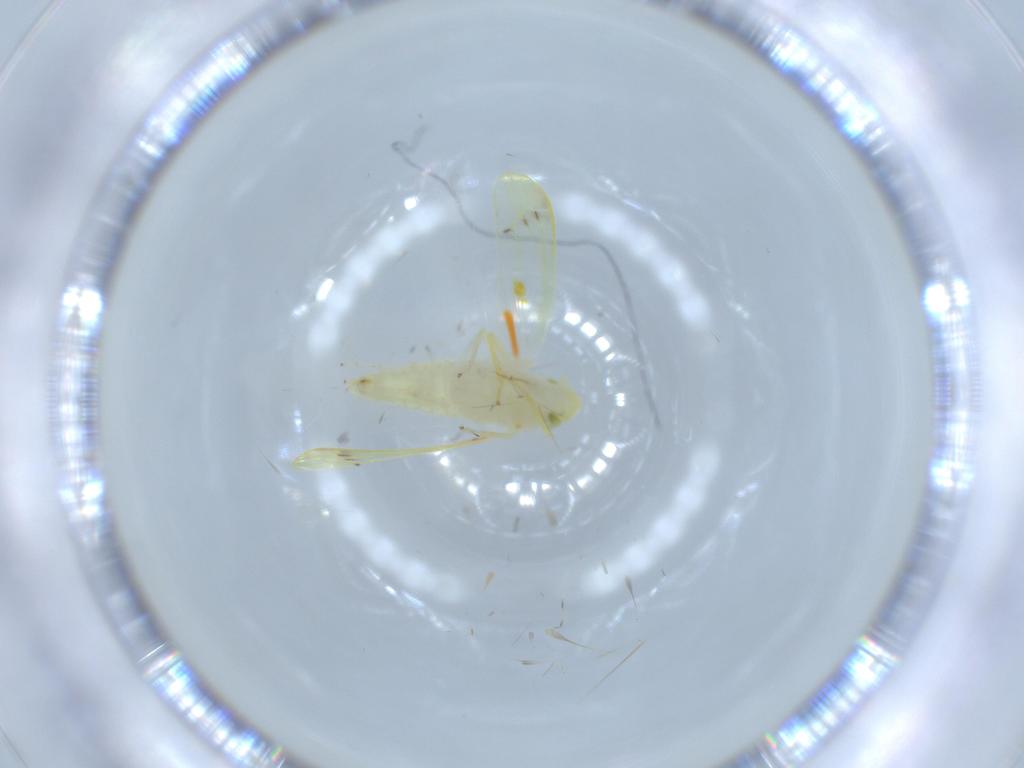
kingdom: Animalia
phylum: Arthropoda
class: Insecta
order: Hemiptera
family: Cicadellidae
